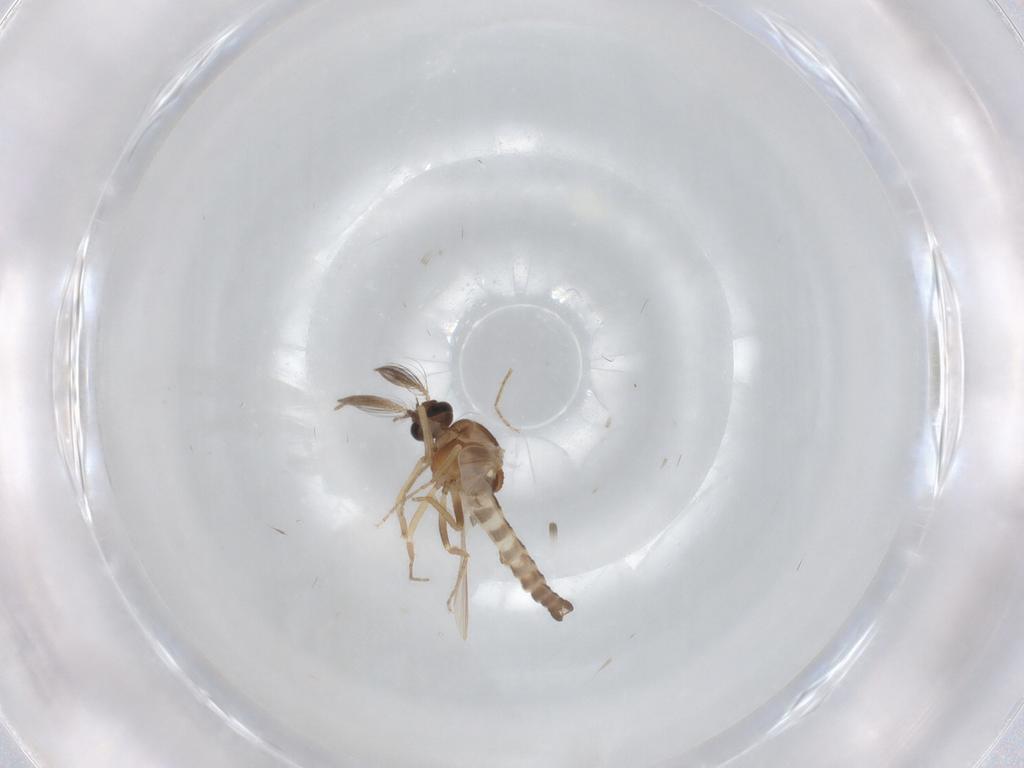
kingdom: Animalia
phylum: Arthropoda
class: Insecta
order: Diptera
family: Ceratopogonidae
